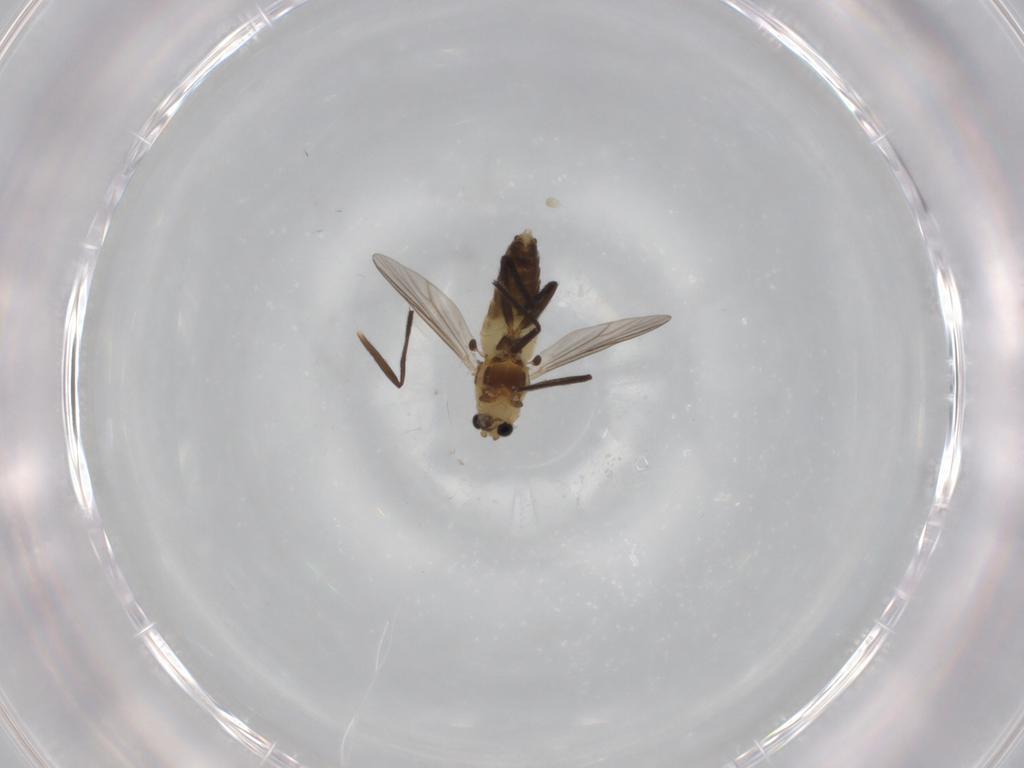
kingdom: Animalia
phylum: Arthropoda
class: Insecta
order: Diptera
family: Chironomidae
